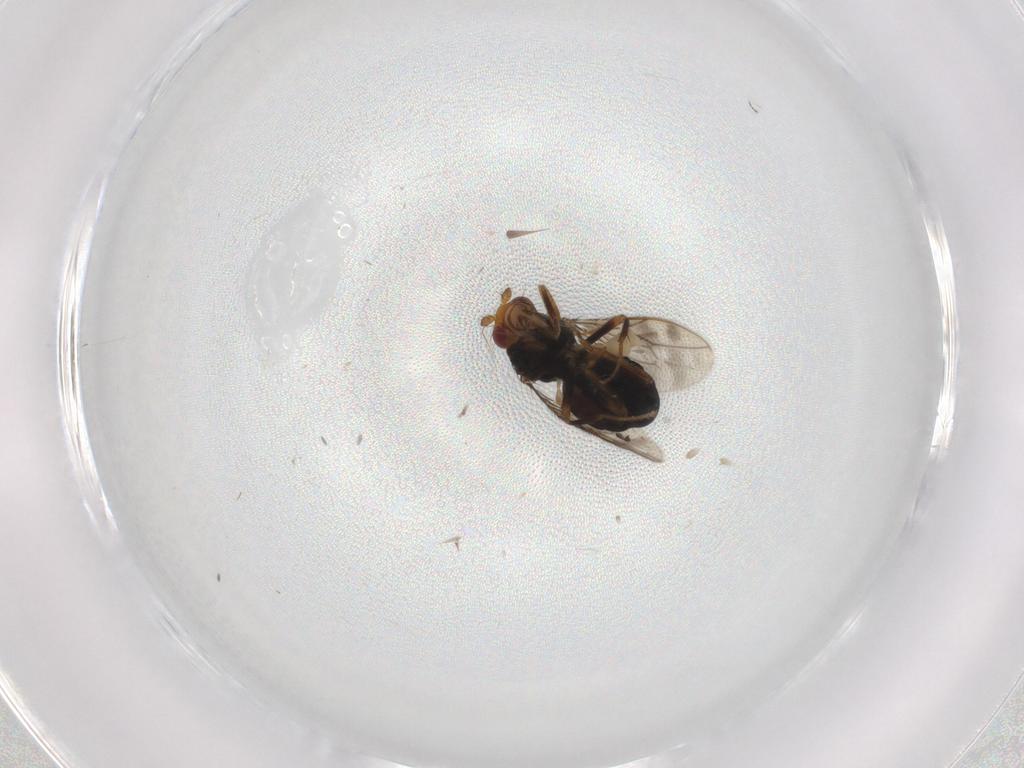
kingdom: Animalia
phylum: Arthropoda
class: Insecta
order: Diptera
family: Sphaeroceridae
